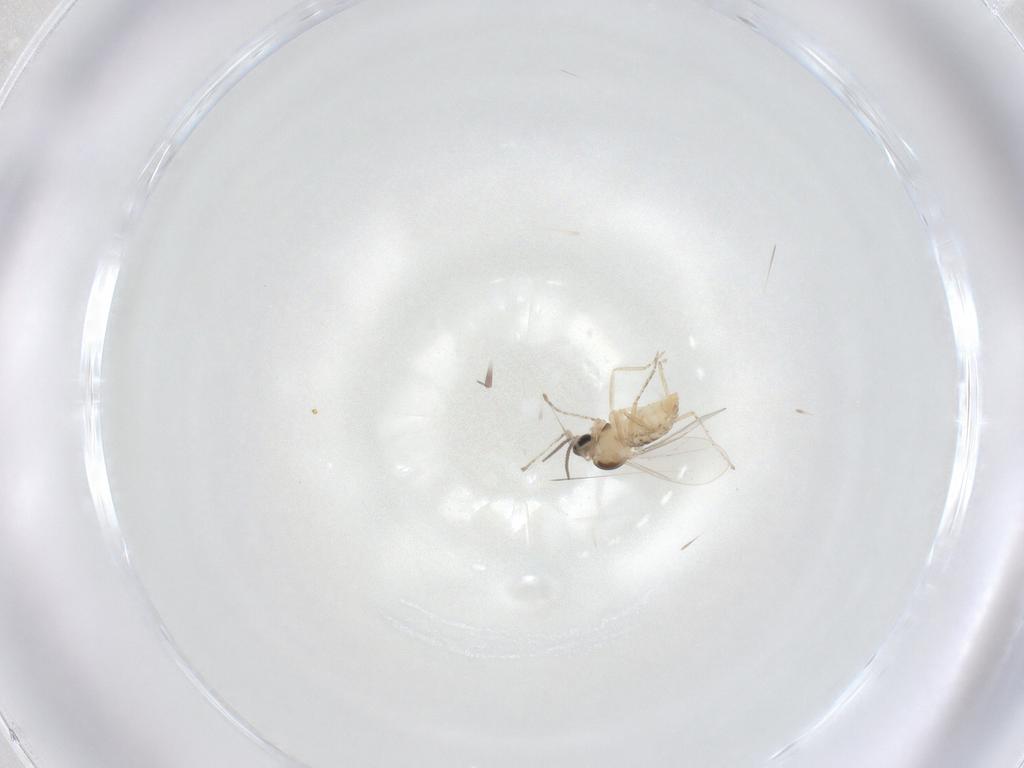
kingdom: Animalia
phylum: Arthropoda
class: Insecta
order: Diptera
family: Cecidomyiidae
